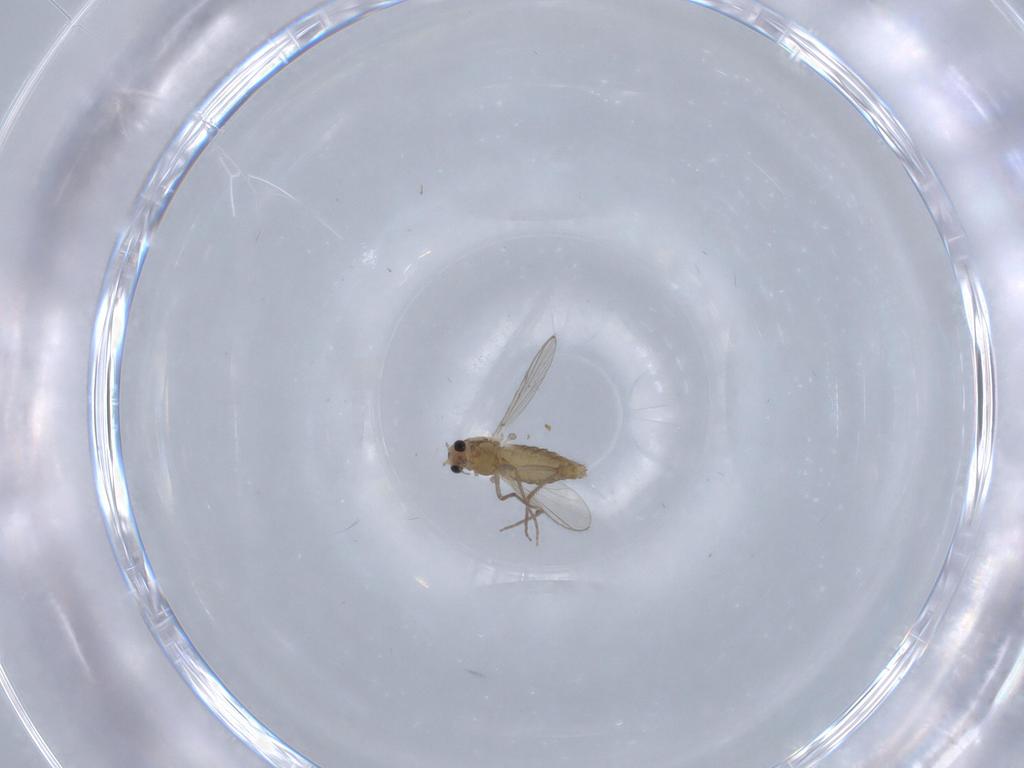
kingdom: Animalia
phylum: Arthropoda
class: Insecta
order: Diptera
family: Chironomidae
